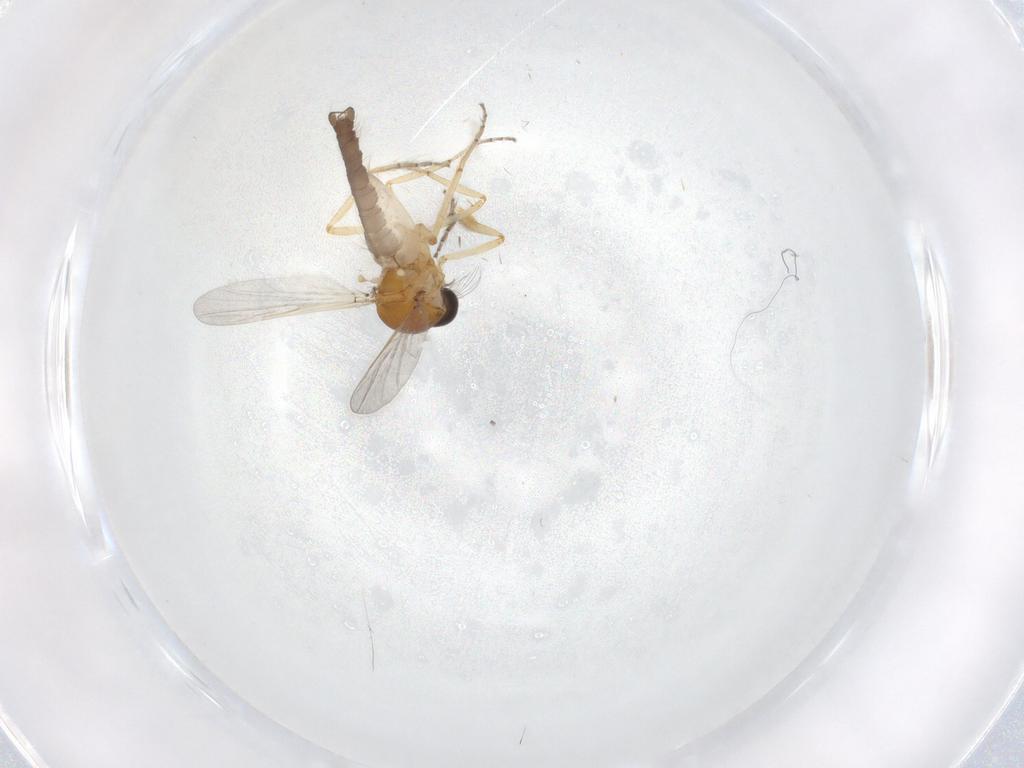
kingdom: Animalia
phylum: Arthropoda
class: Insecta
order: Diptera
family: Ceratopogonidae
